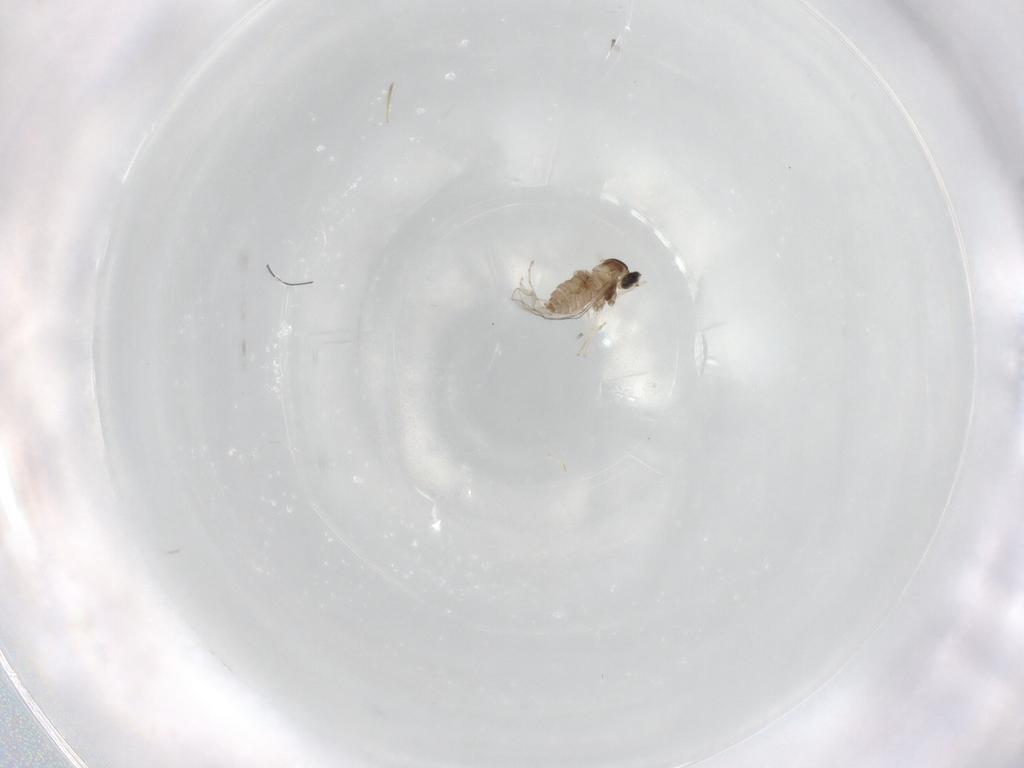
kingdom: Animalia
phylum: Arthropoda
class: Insecta
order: Diptera
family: Cecidomyiidae
